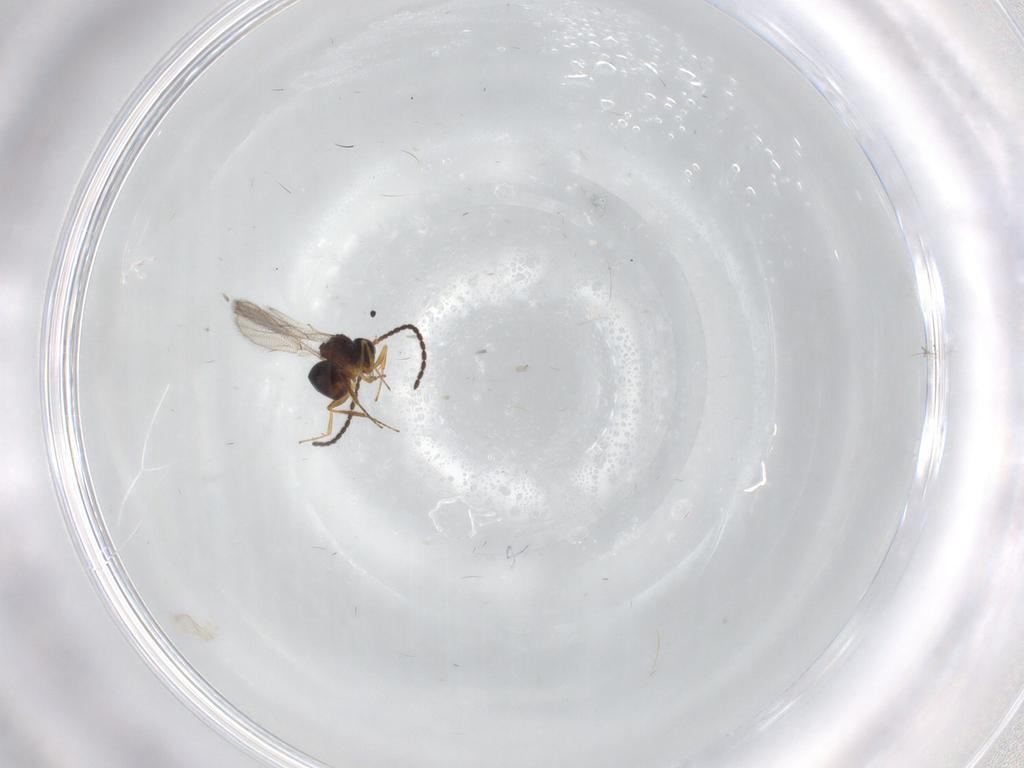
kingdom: Animalia
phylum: Arthropoda
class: Insecta
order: Hymenoptera
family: Figitidae
